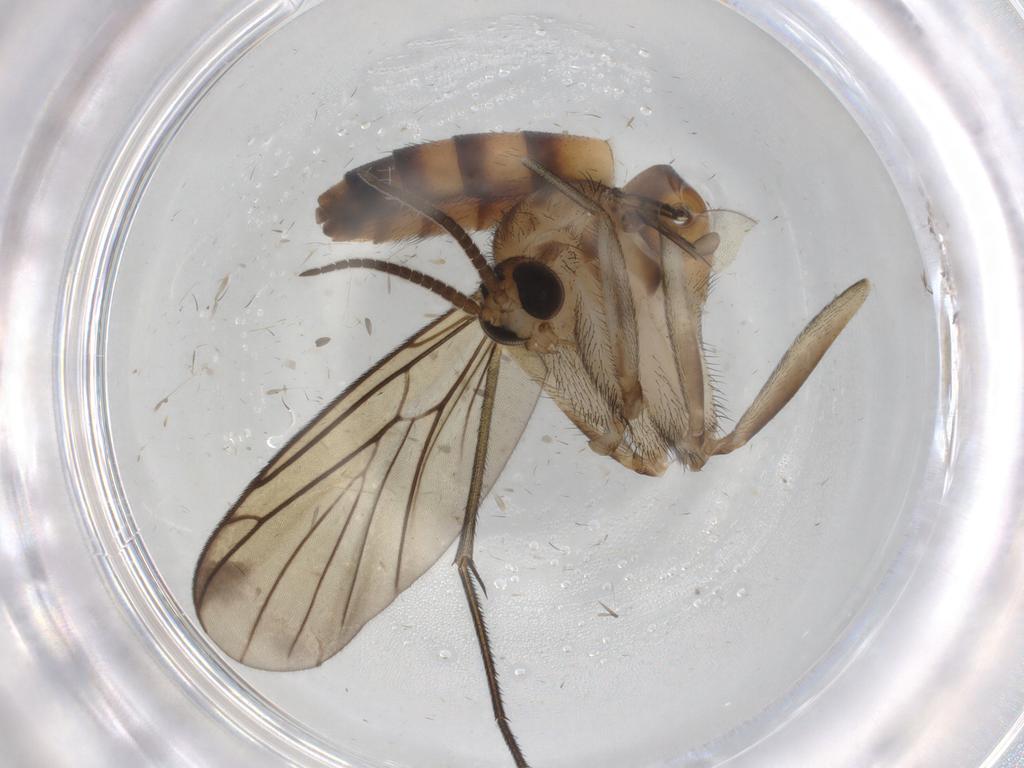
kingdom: Animalia
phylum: Arthropoda
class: Insecta
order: Diptera
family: Keroplatidae
